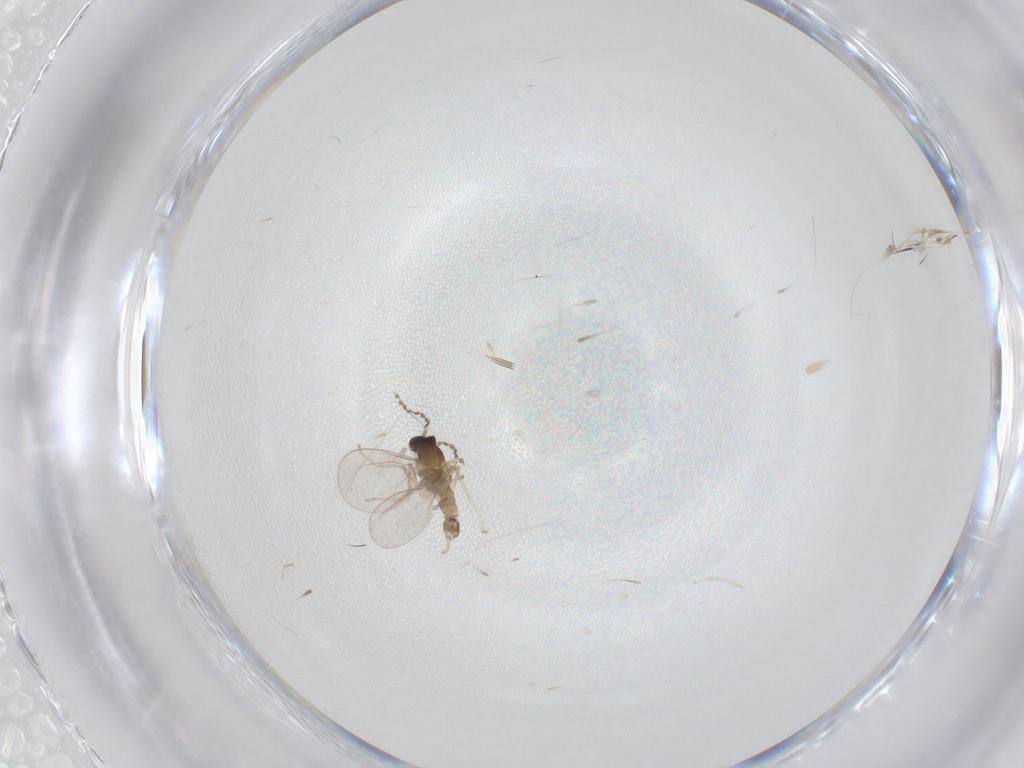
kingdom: Animalia
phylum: Arthropoda
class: Insecta
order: Diptera
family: Cecidomyiidae
